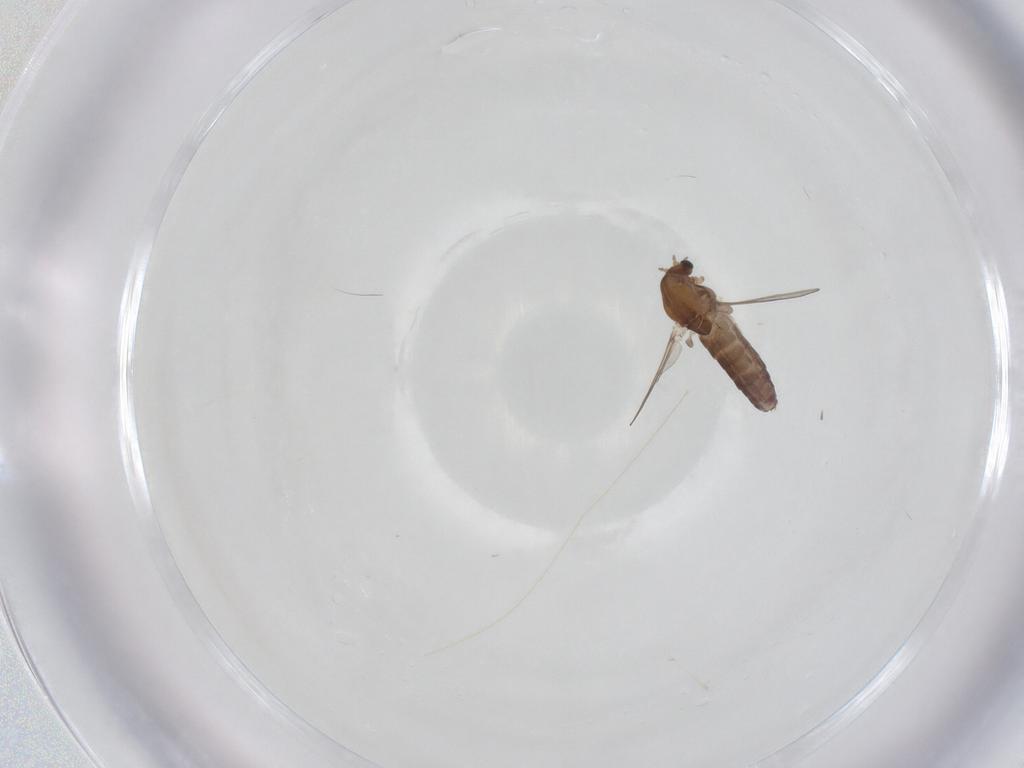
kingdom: Animalia
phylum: Arthropoda
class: Insecta
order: Diptera
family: Chironomidae
